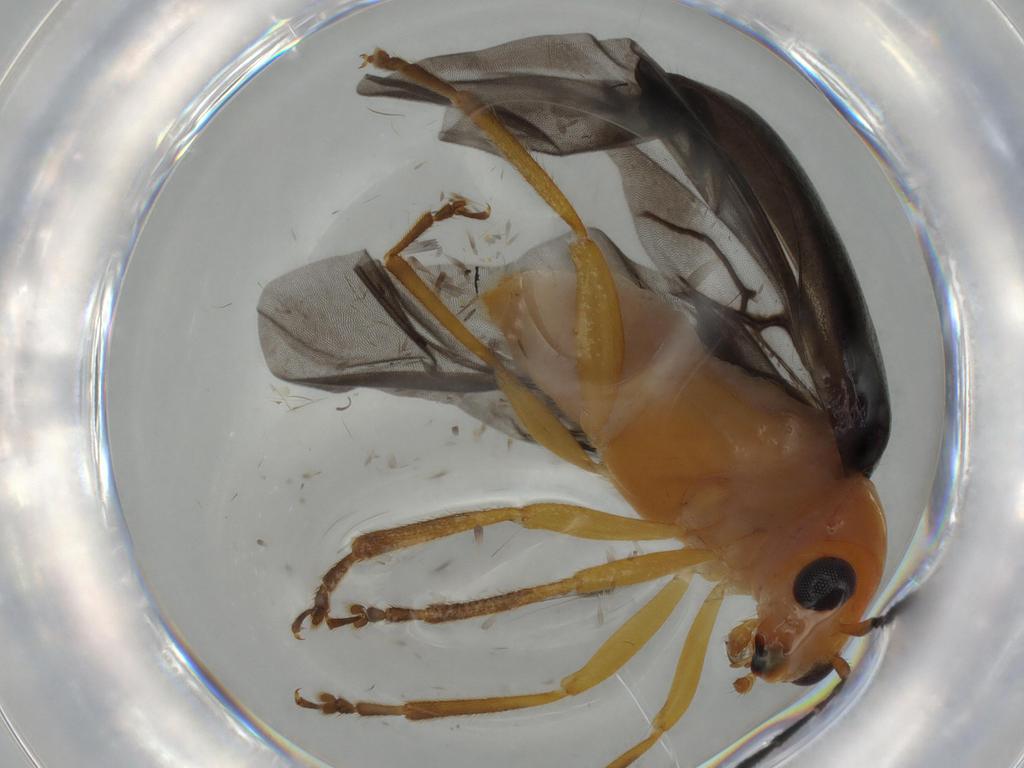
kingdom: Animalia
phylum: Arthropoda
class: Insecta
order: Coleoptera
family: Chrysomelidae
